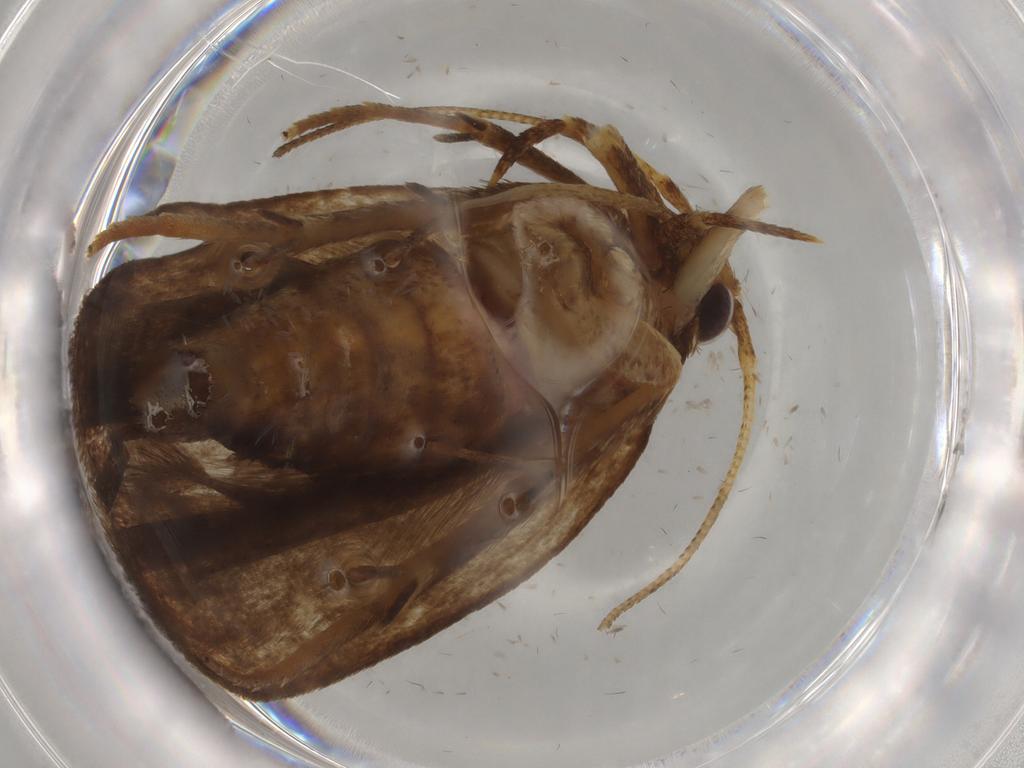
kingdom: Animalia
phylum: Arthropoda
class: Insecta
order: Lepidoptera
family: Autostichidae
